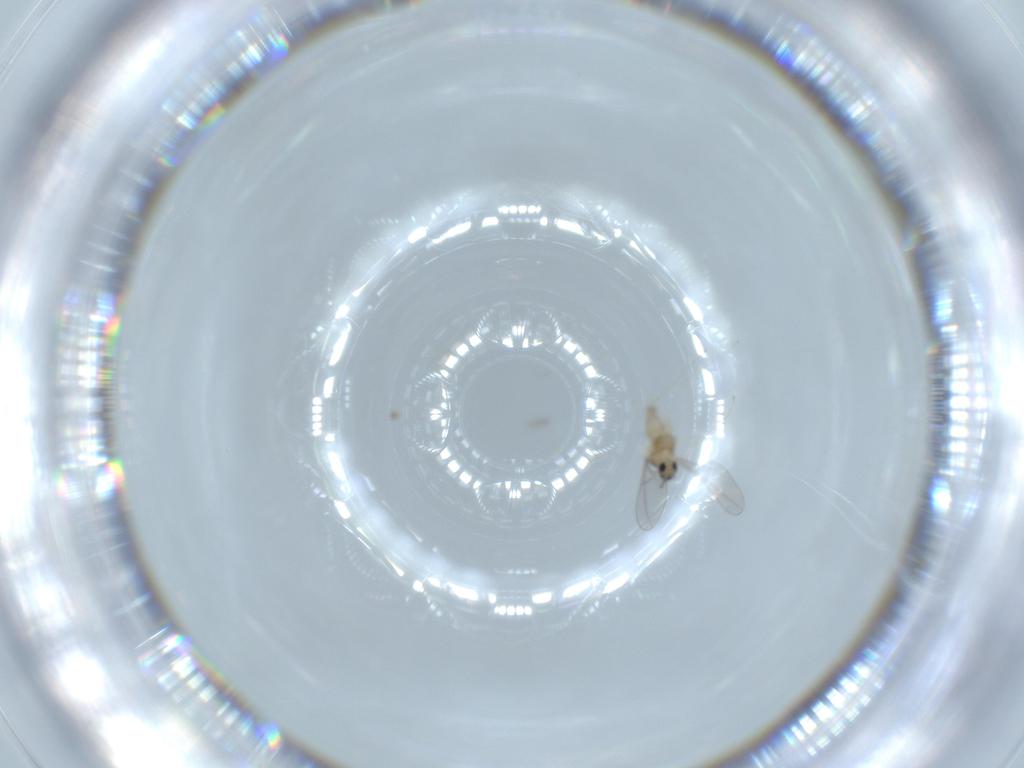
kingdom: Animalia
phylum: Arthropoda
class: Insecta
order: Diptera
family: Cecidomyiidae
